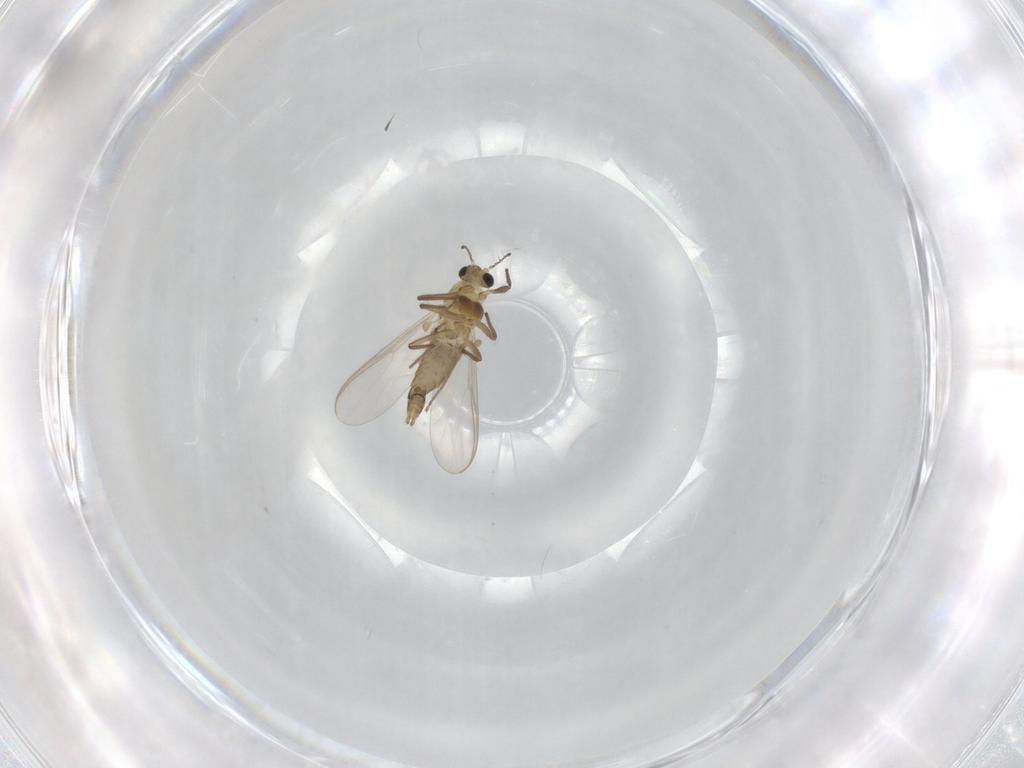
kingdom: Animalia
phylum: Arthropoda
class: Insecta
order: Diptera
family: Chironomidae
